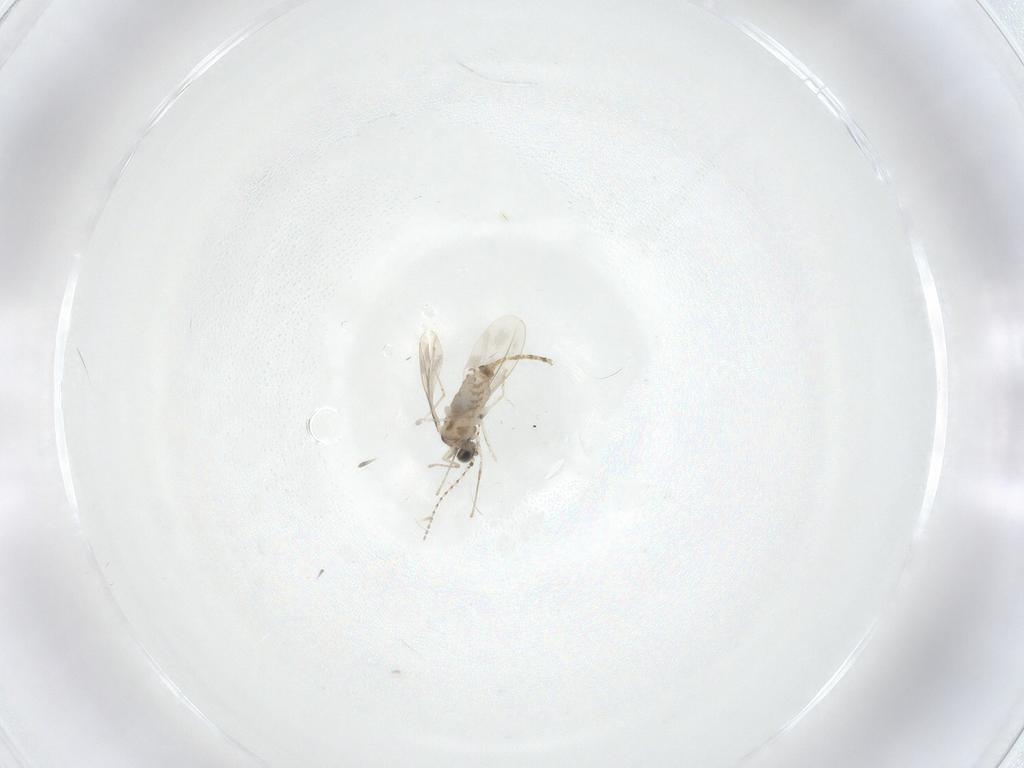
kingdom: Animalia
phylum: Arthropoda
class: Insecta
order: Diptera
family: Cecidomyiidae
